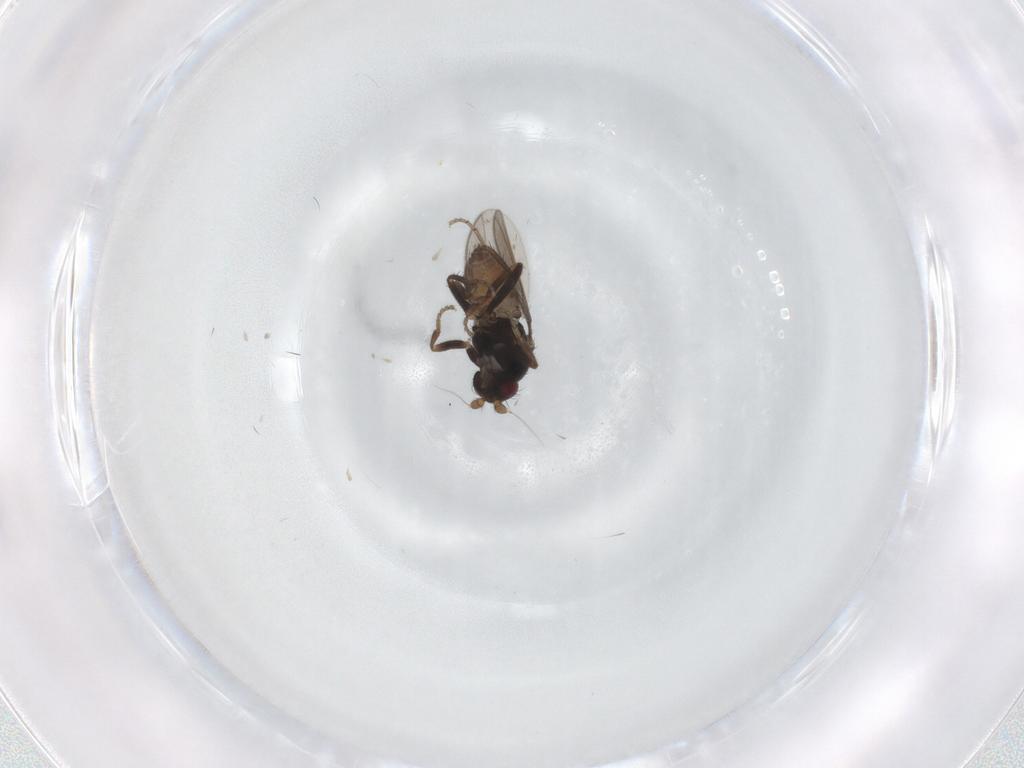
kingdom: Animalia
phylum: Arthropoda
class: Insecta
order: Diptera
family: Sphaeroceridae
